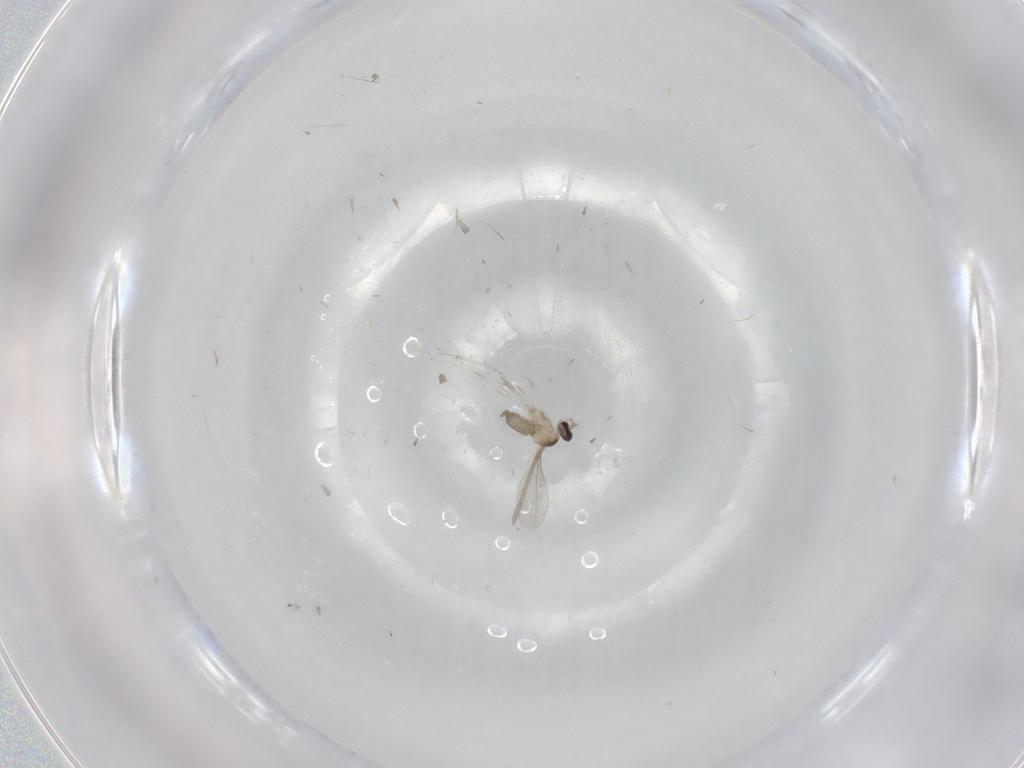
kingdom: Animalia
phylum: Arthropoda
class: Insecta
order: Diptera
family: Cecidomyiidae
